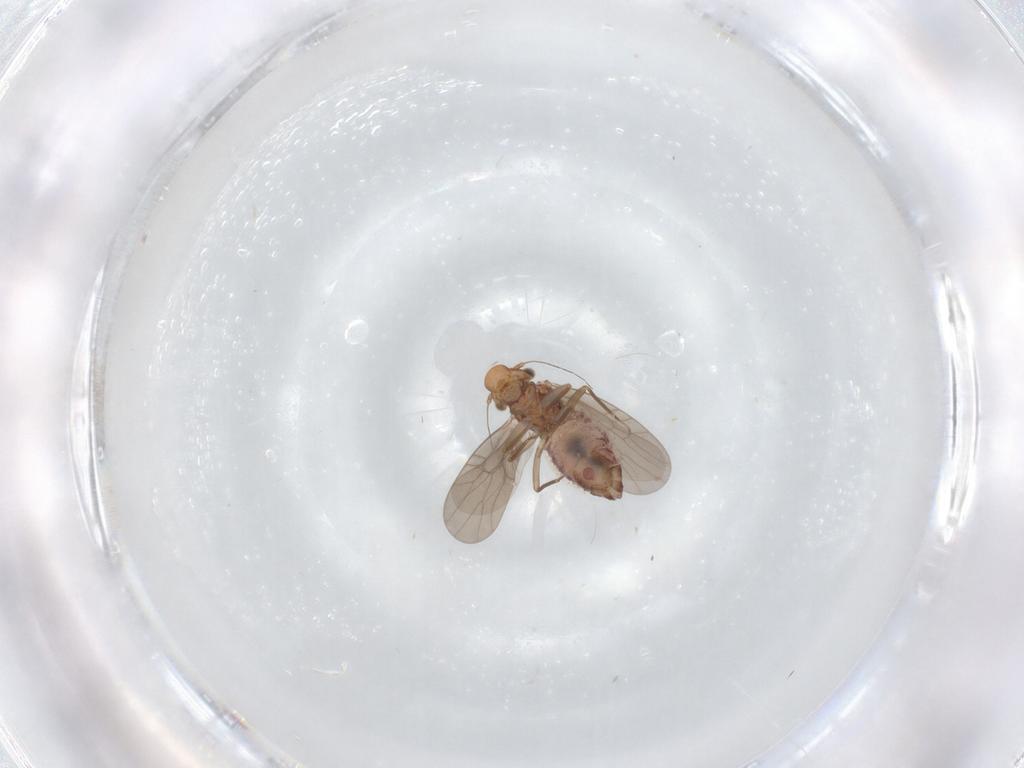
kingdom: Animalia
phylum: Arthropoda
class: Insecta
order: Psocodea
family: Lepidopsocidae
